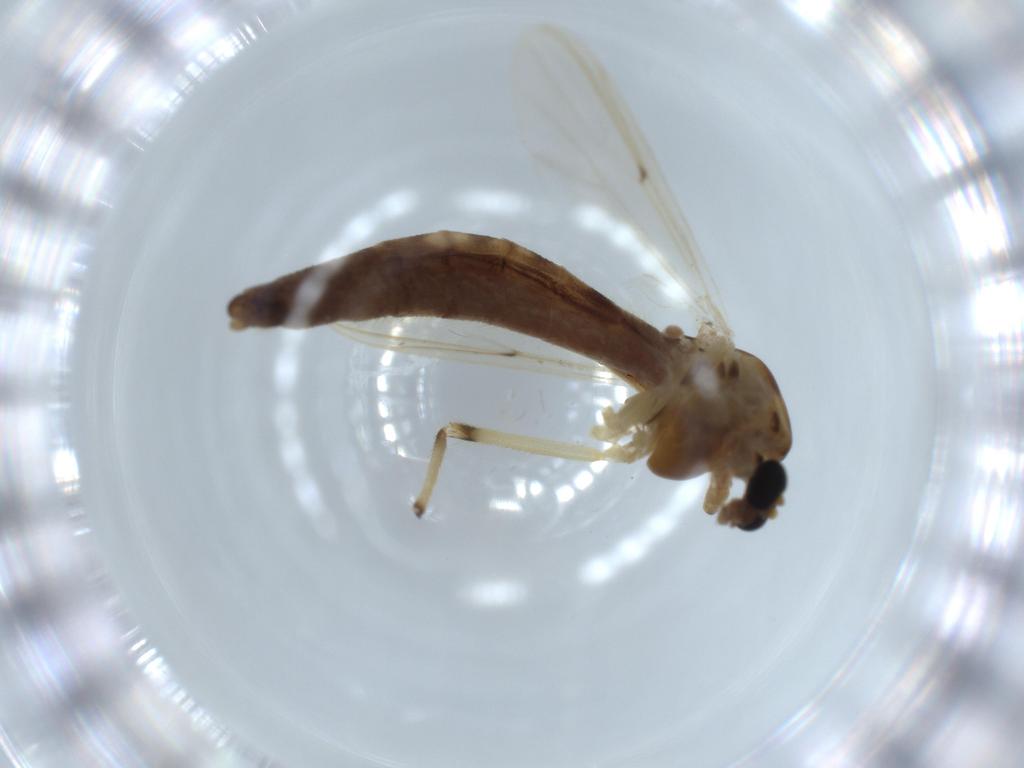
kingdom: Animalia
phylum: Arthropoda
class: Insecta
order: Diptera
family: Chironomidae
